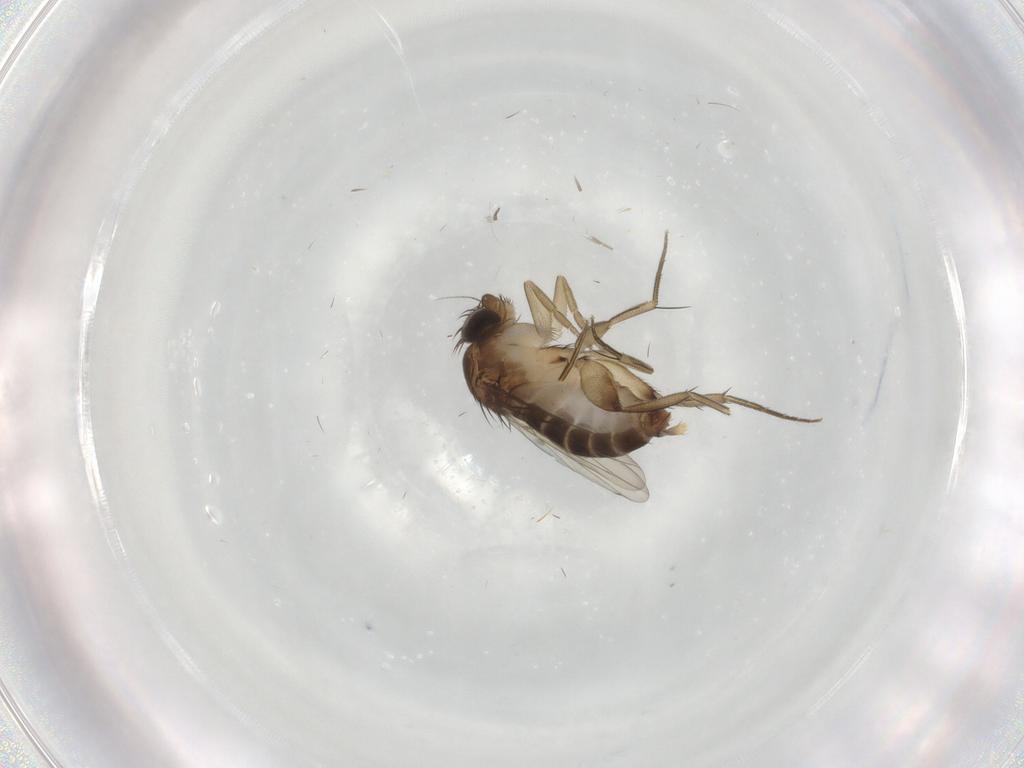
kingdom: Animalia
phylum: Arthropoda
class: Insecta
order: Diptera
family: Phoridae
